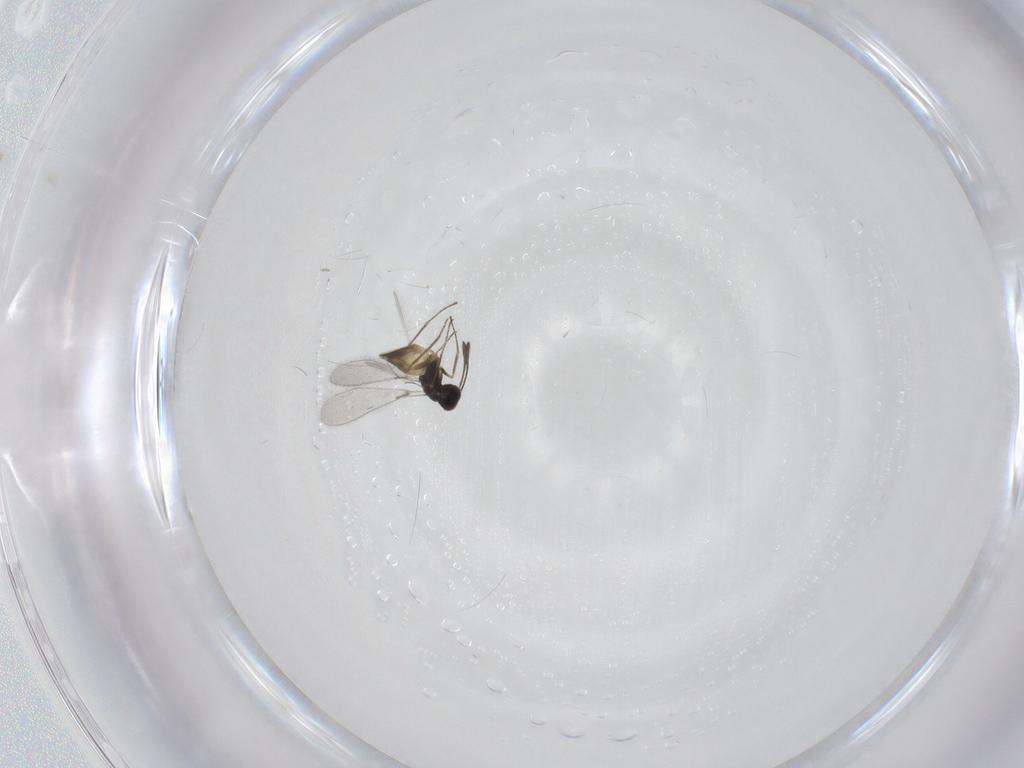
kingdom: Animalia
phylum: Arthropoda
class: Insecta
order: Hymenoptera
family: Mymaridae
